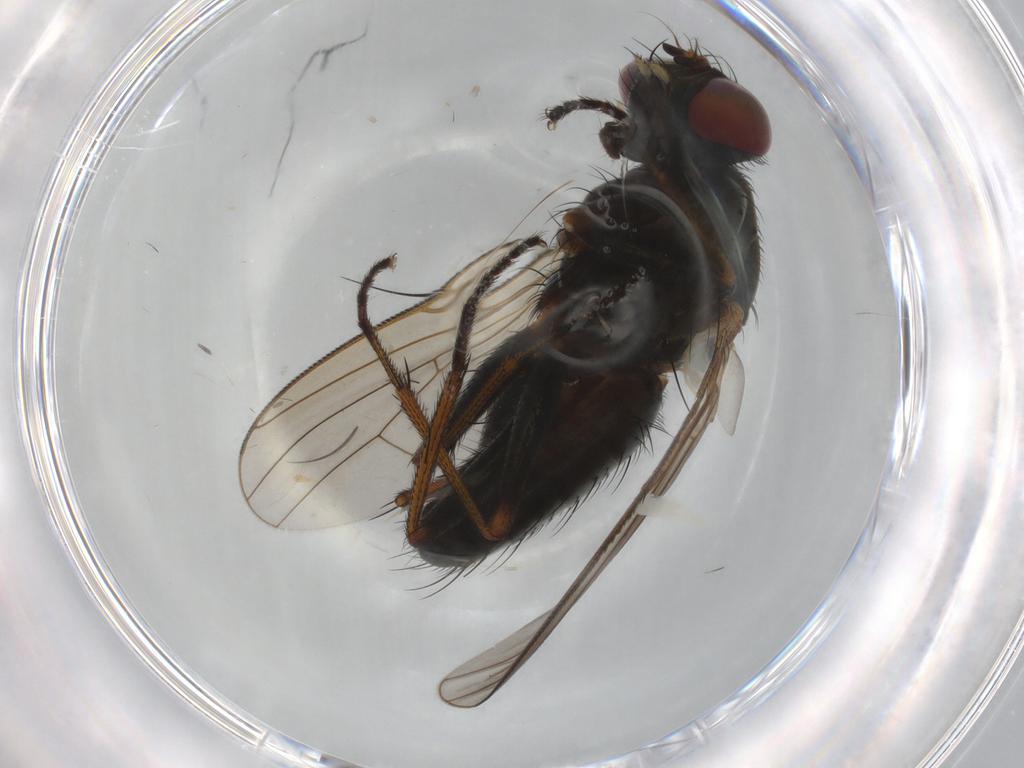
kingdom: Animalia
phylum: Arthropoda
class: Insecta
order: Diptera
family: Muscidae
